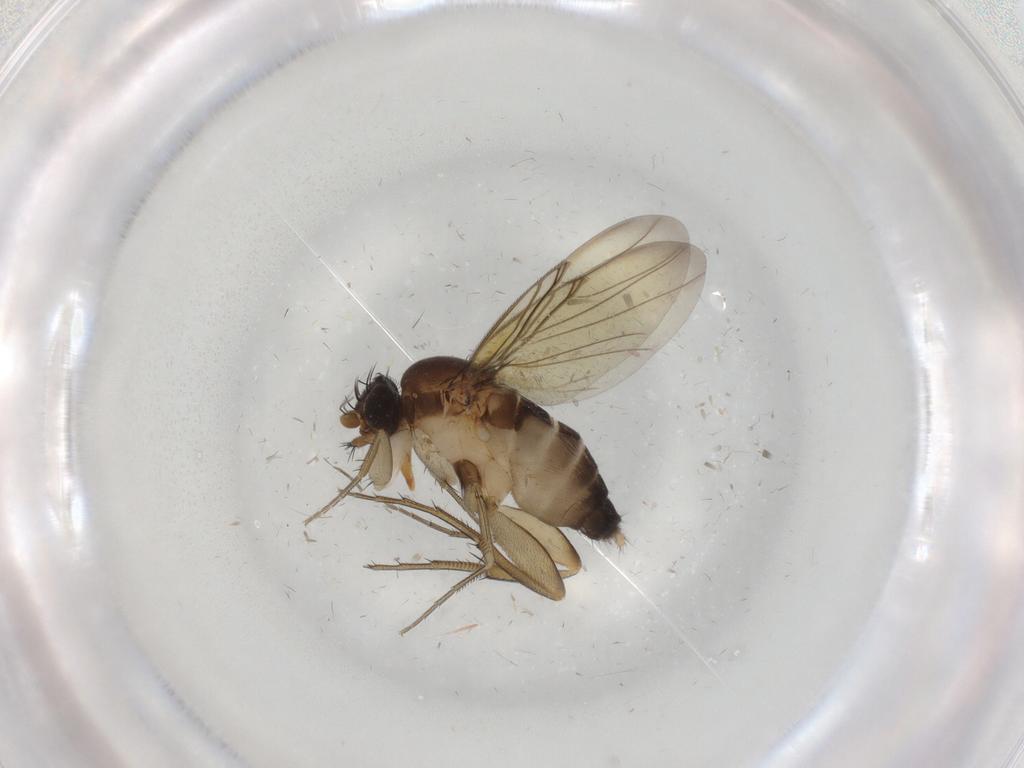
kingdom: Animalia
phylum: Arthropoda
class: Insecta
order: Diptera
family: Phoridae
